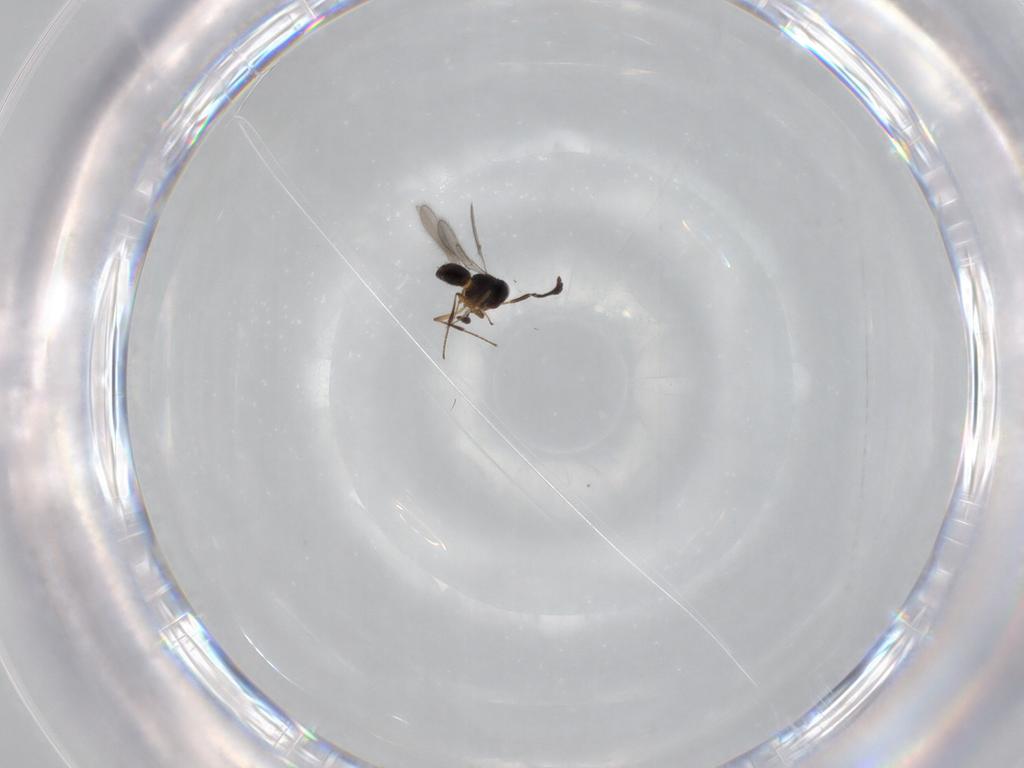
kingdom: Animalia
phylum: Arthropoda
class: Insecta
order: Hymenoptera
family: Scelionidae
